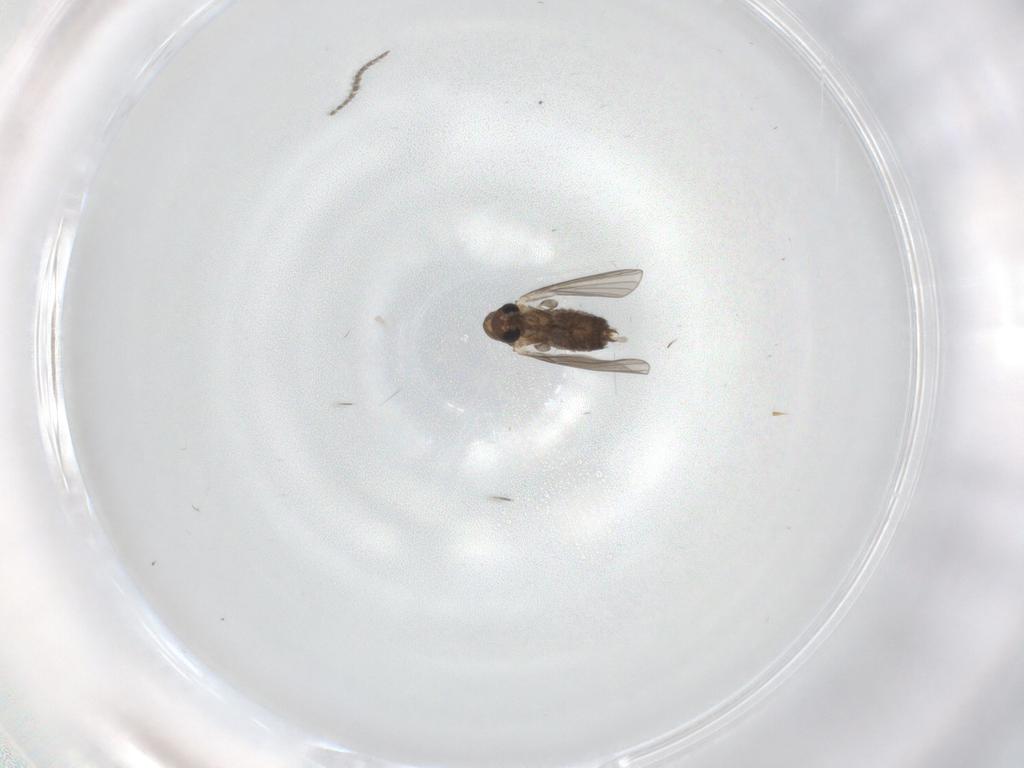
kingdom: Animalia
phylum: Arthropoda
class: Insecta
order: Diptera
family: Psychodidae
